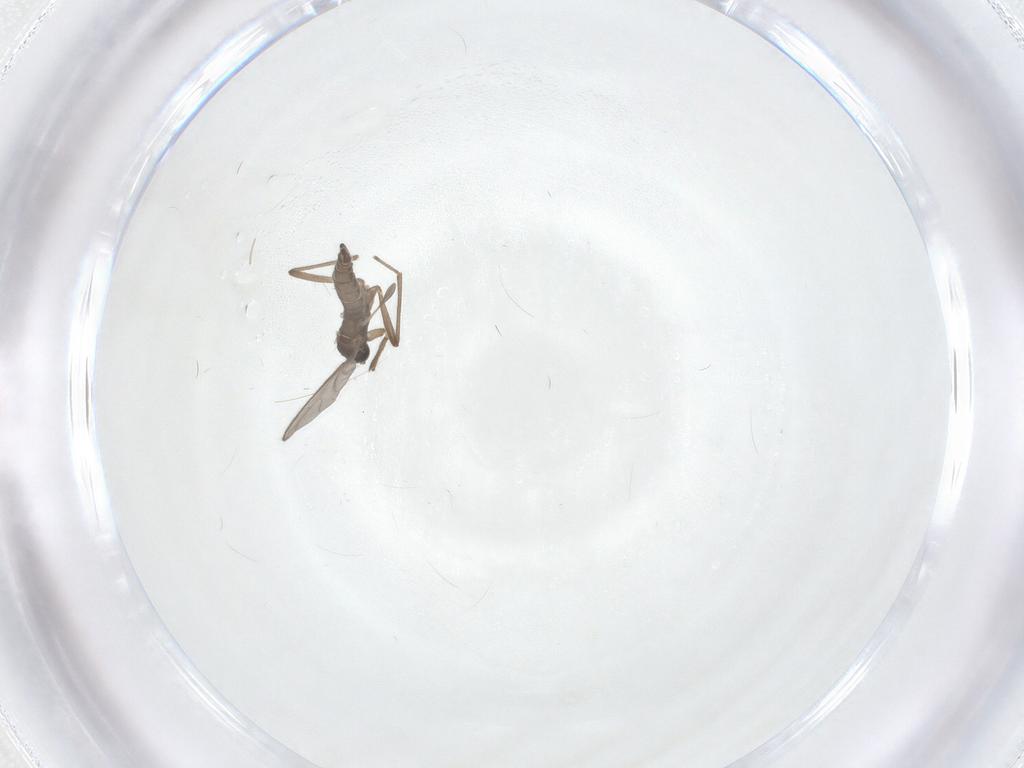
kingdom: Animalia
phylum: Arthropoda
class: Insecta
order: Diptera
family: Sciaridae
